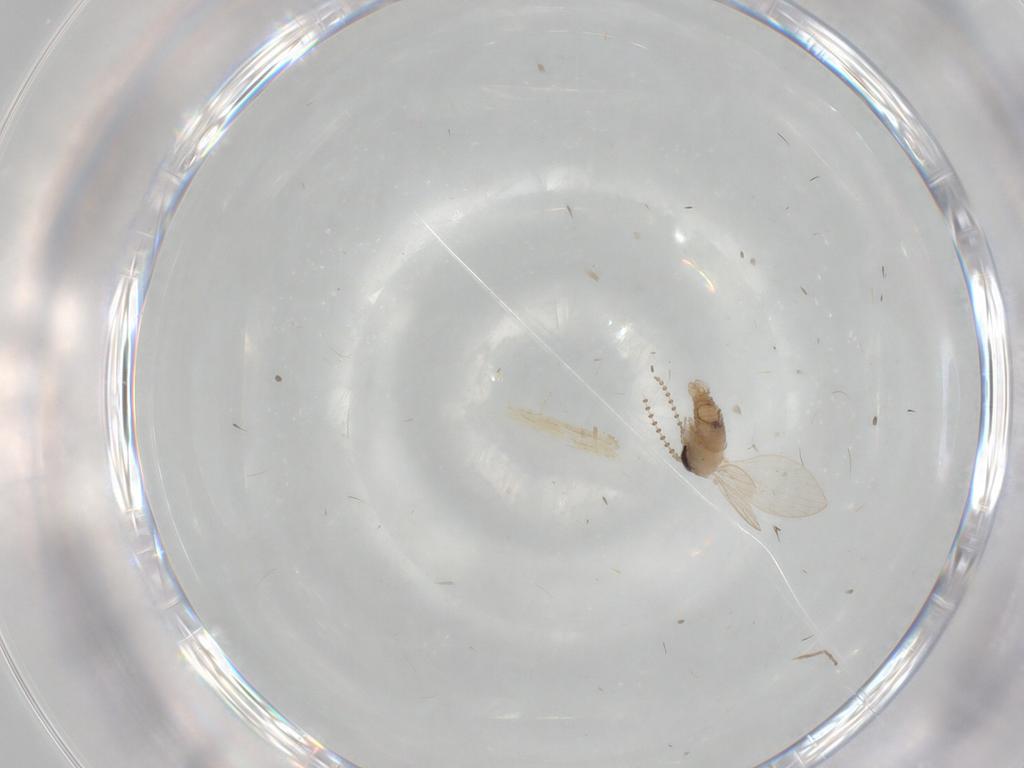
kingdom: Animalia
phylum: Arthropoda
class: Insecta
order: Diptera
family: Psychodidae
